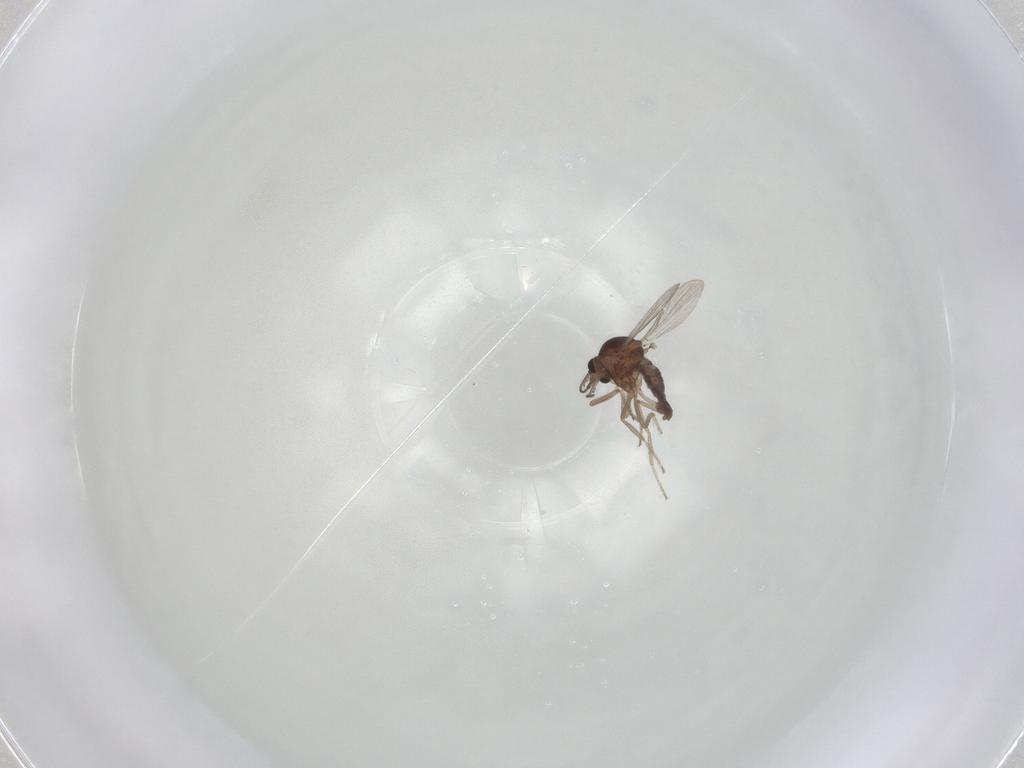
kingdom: Animalia
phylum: Arthropoda
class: Insecta
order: Diptera
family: Ceratopogonidae
